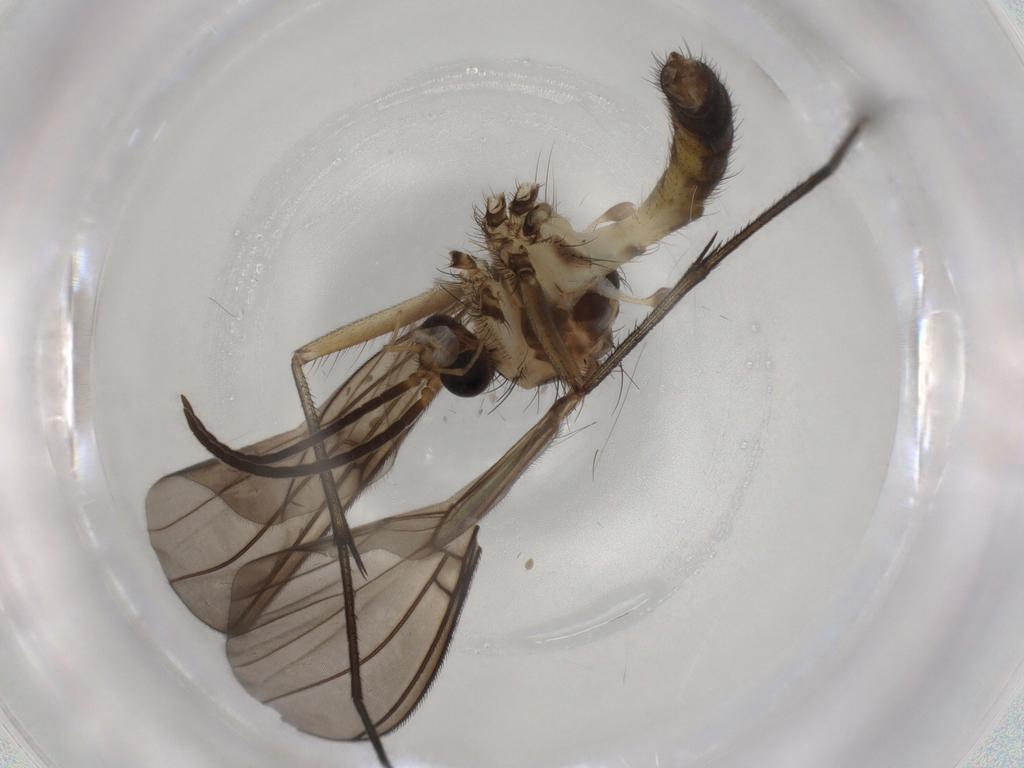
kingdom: Animalia
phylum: Arthropoda
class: Insecta
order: Diptera
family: Mycetophilidae
